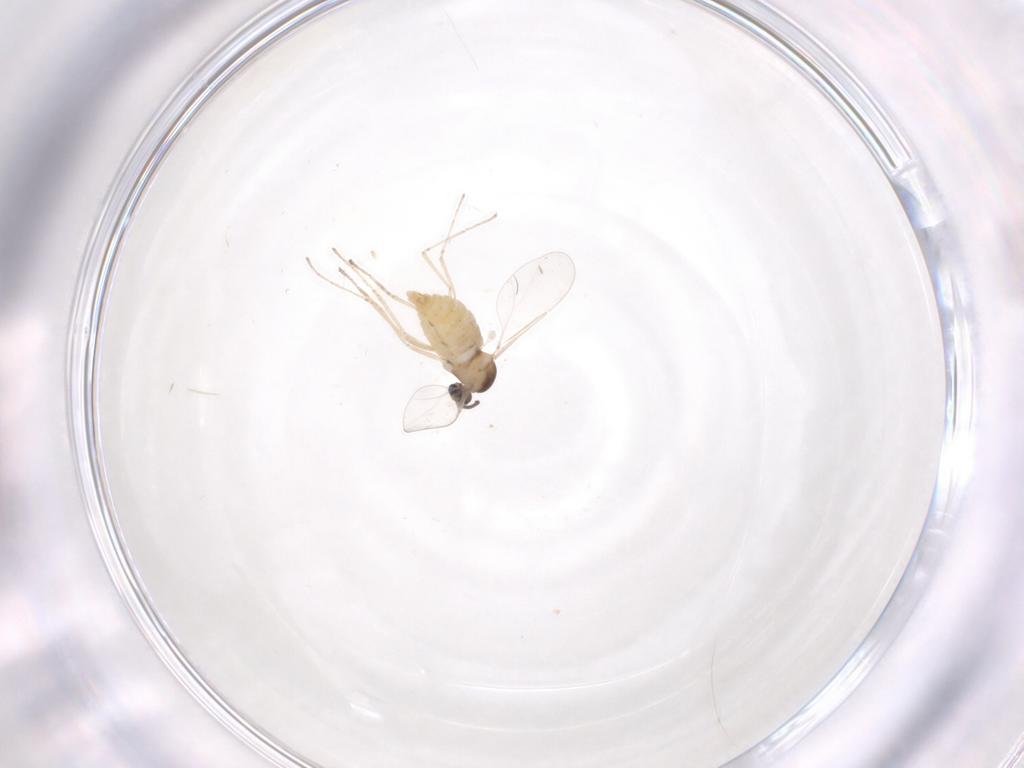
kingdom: Animalia
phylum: Arthropoda
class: Insecta
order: Diptera
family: Cecidomyiidae
